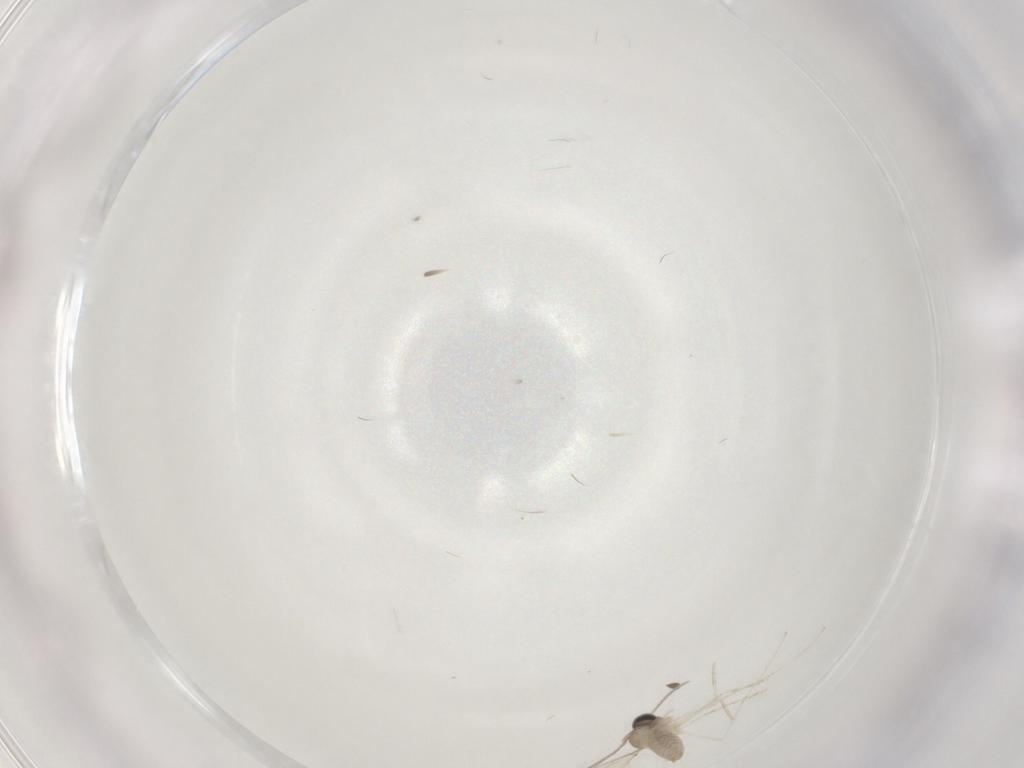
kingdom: Animalia
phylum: Arthropoda
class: Insecta
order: Diptera
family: Cecidomyiidae
